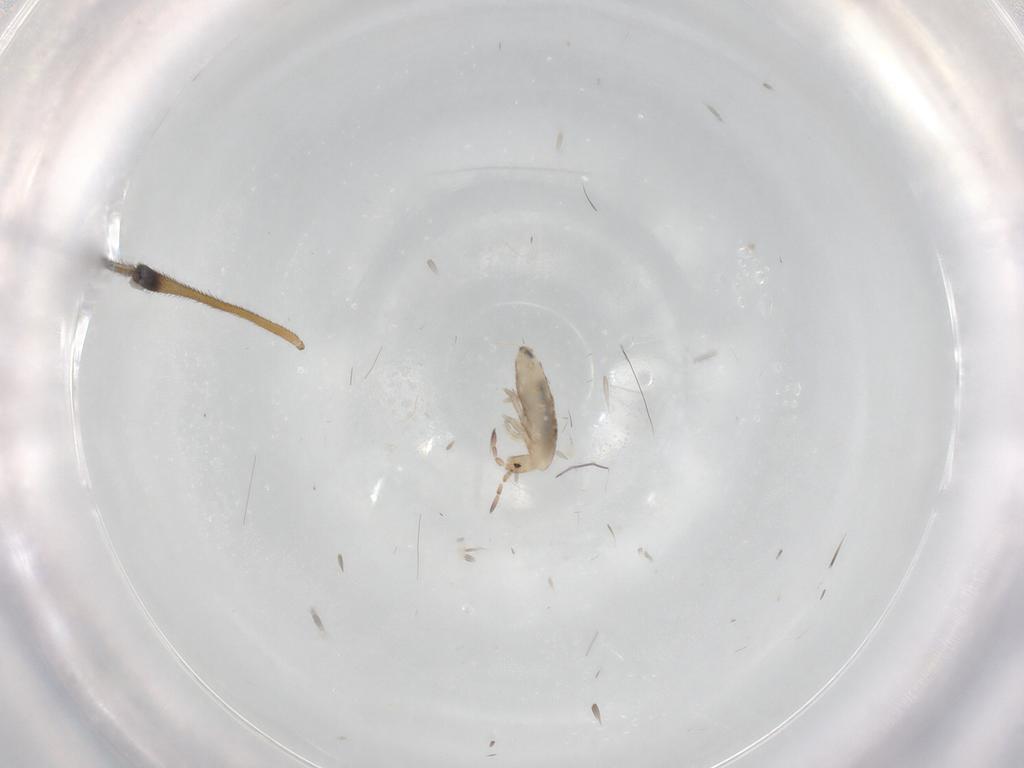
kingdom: Animalia
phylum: Arthropoda
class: Collembola
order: Entomobryomorpha
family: Entomobryidae
